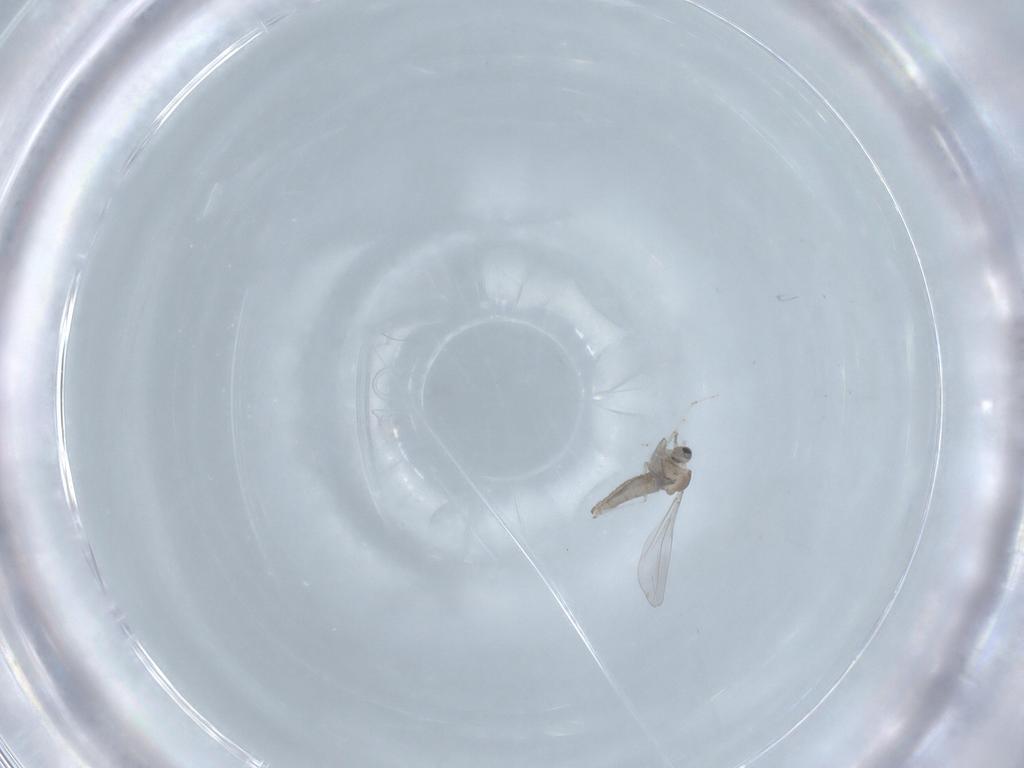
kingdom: Animalia
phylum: Arthropoda
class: Insecta
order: Diptera
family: Cecidomyiidae
